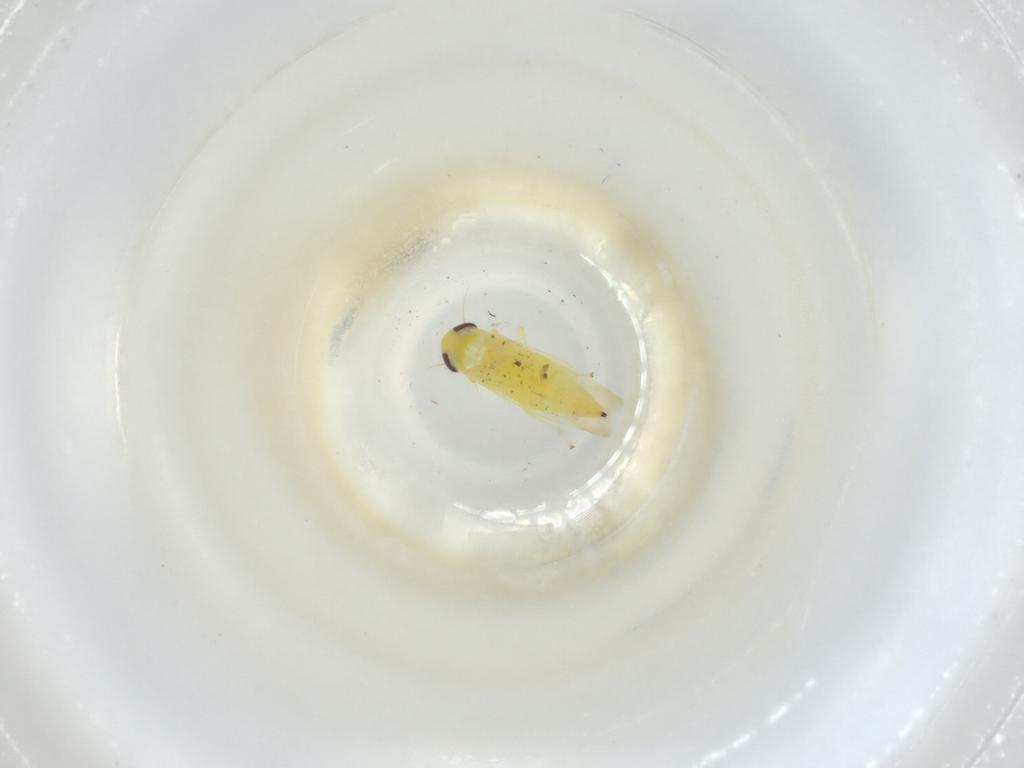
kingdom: Animalia
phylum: Arthropoda
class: Insecta
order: Hemiptera
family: Cicadellidae
